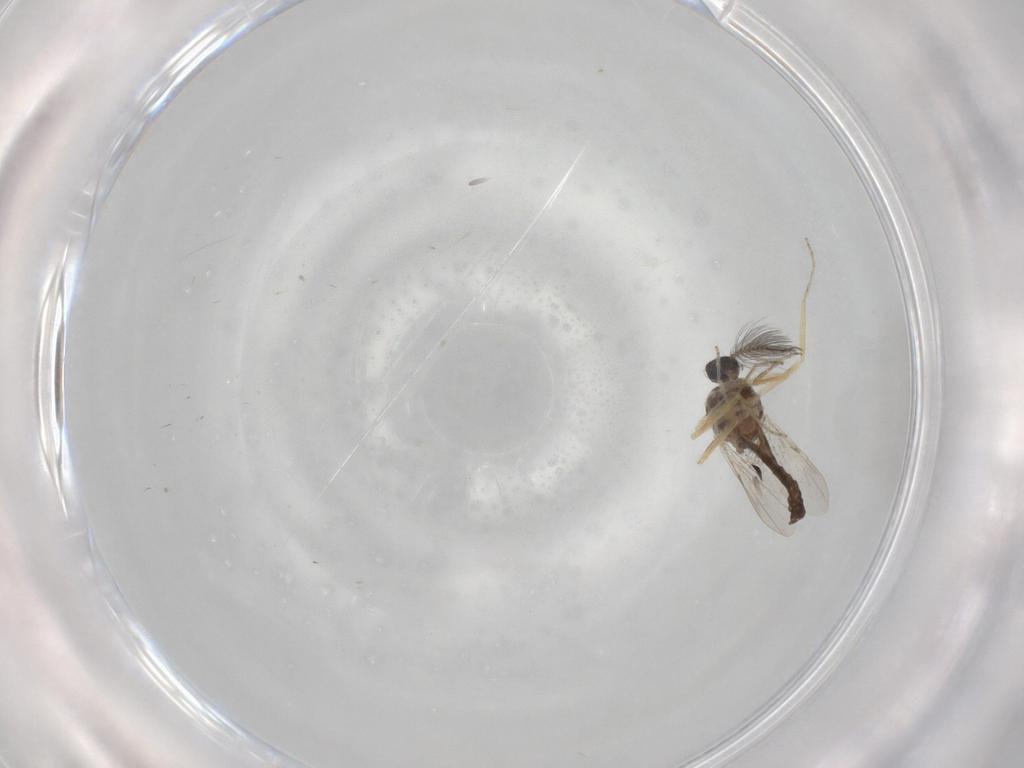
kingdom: Animalia
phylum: Arthropoda
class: Insecta
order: Diptera
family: Ceratopogonidae
